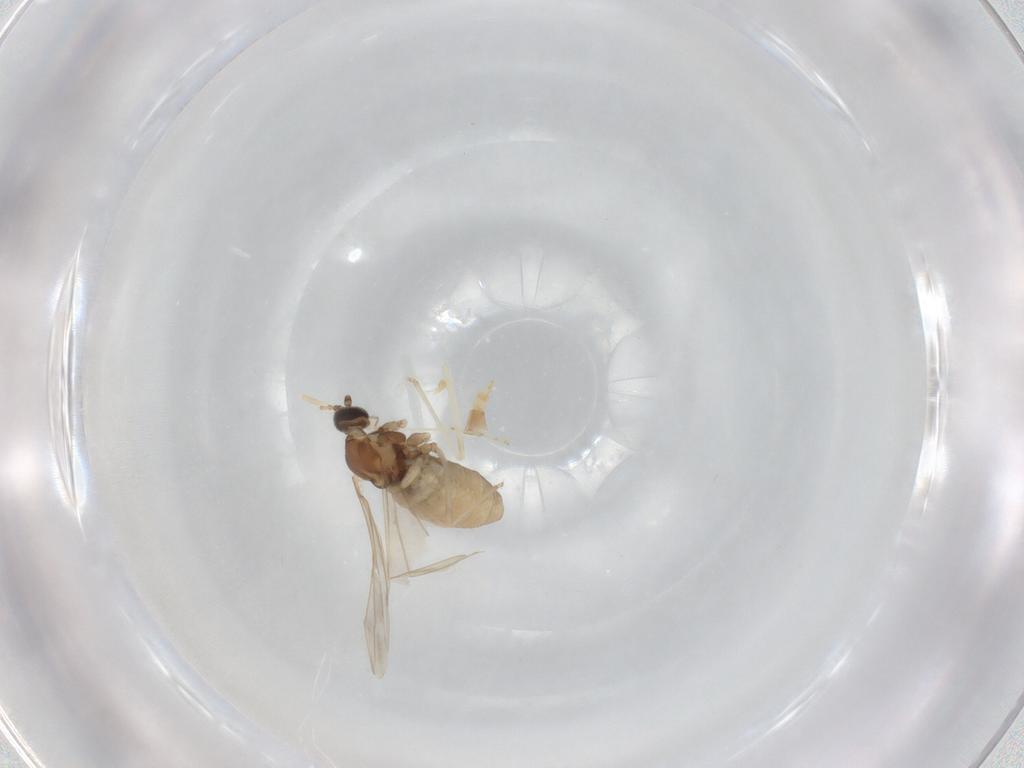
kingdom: Animalia
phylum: Arthropoda
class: Insecta
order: Diptera
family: Cecidomyiidae
